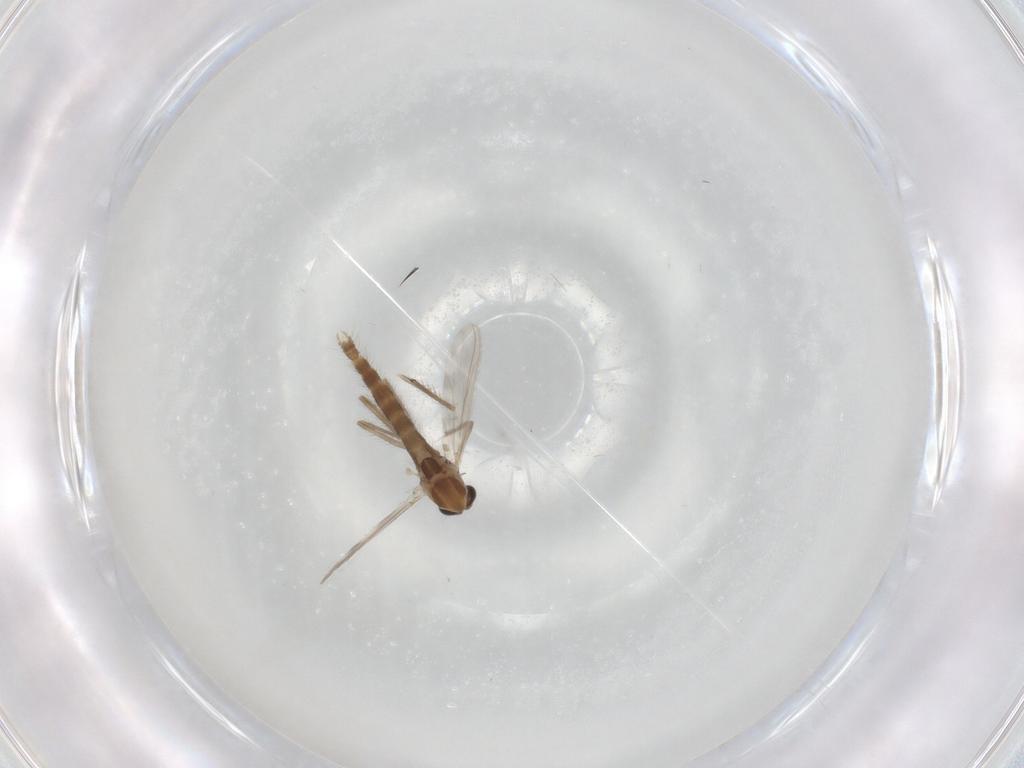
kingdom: Animalia
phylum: Arthropoda
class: Insecta
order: Diptera
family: Chironomidae
